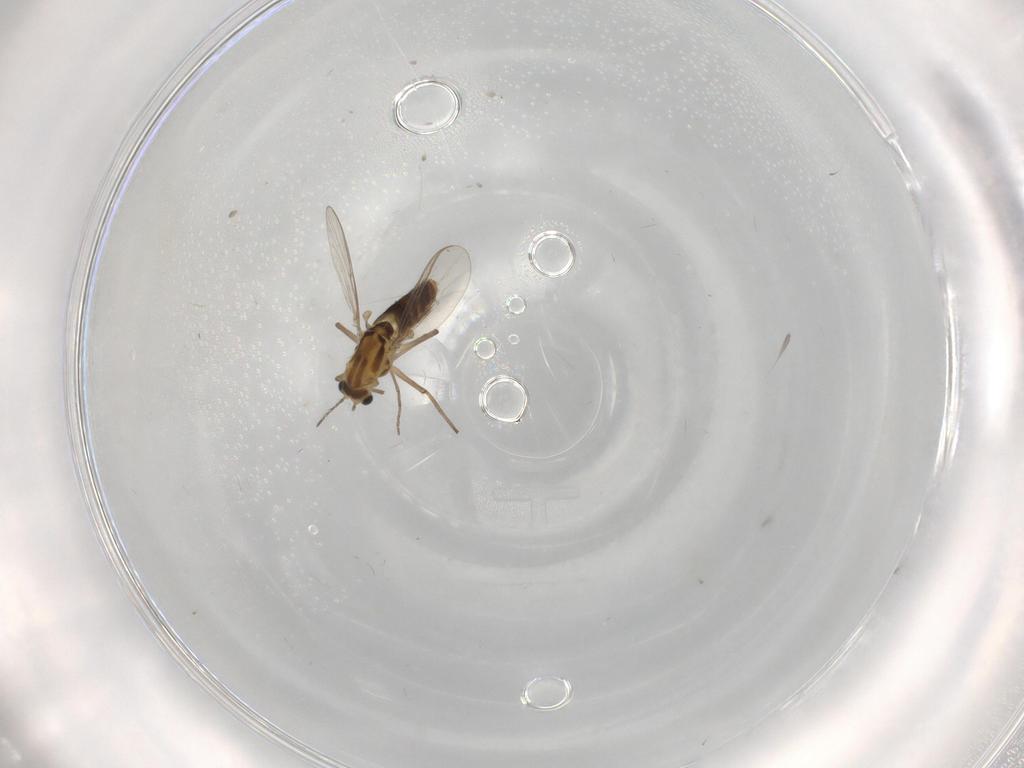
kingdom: Animalia
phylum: Arthropoda
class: Insecta
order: Diptera
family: Chironomidae
